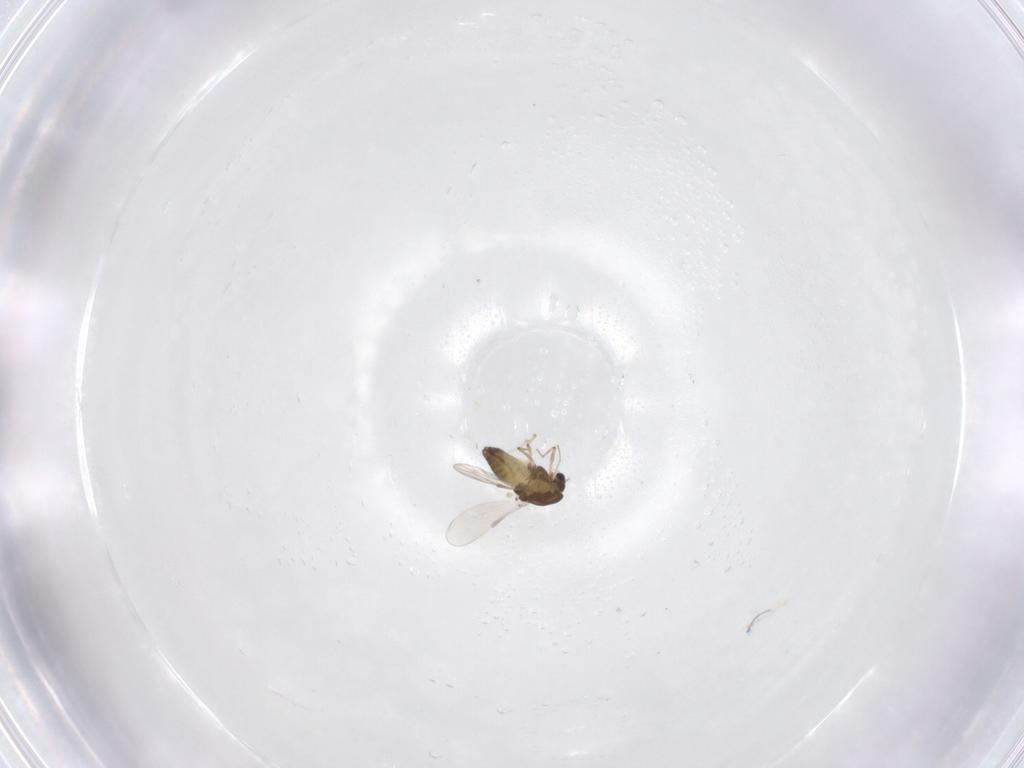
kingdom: Animalia
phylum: Arthropoda
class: Insecta
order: Diptera
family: Chironomidae
